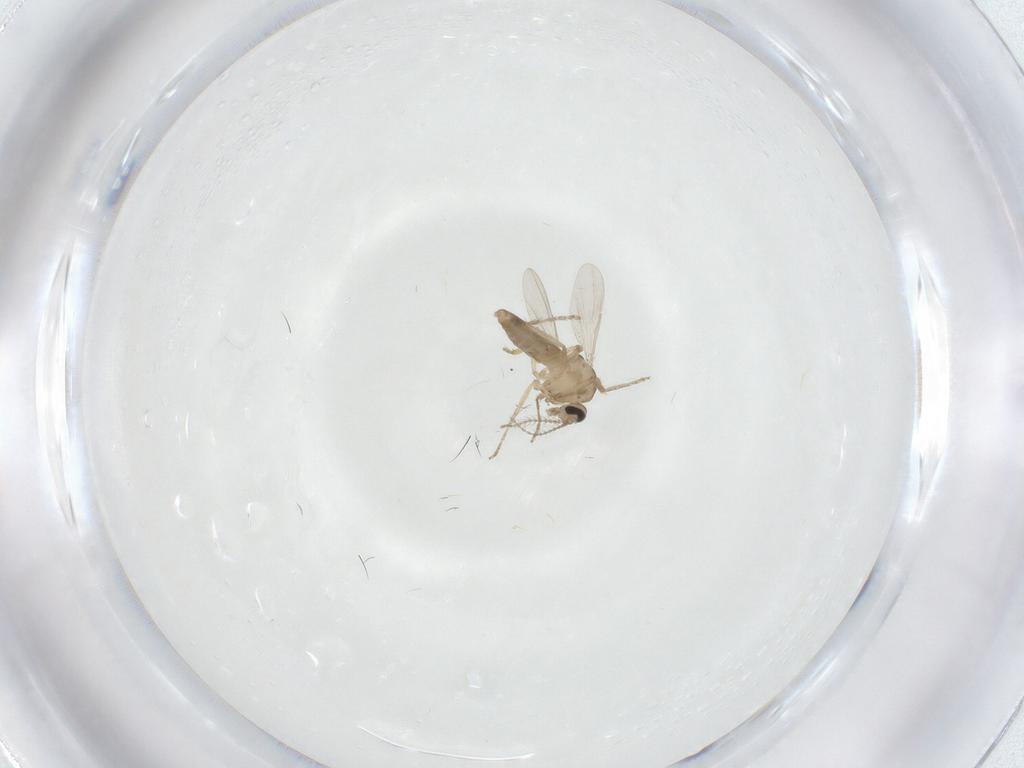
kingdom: Animalia
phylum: Arthropoda
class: Insecta
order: Diptera
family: Ceratopogonidae
